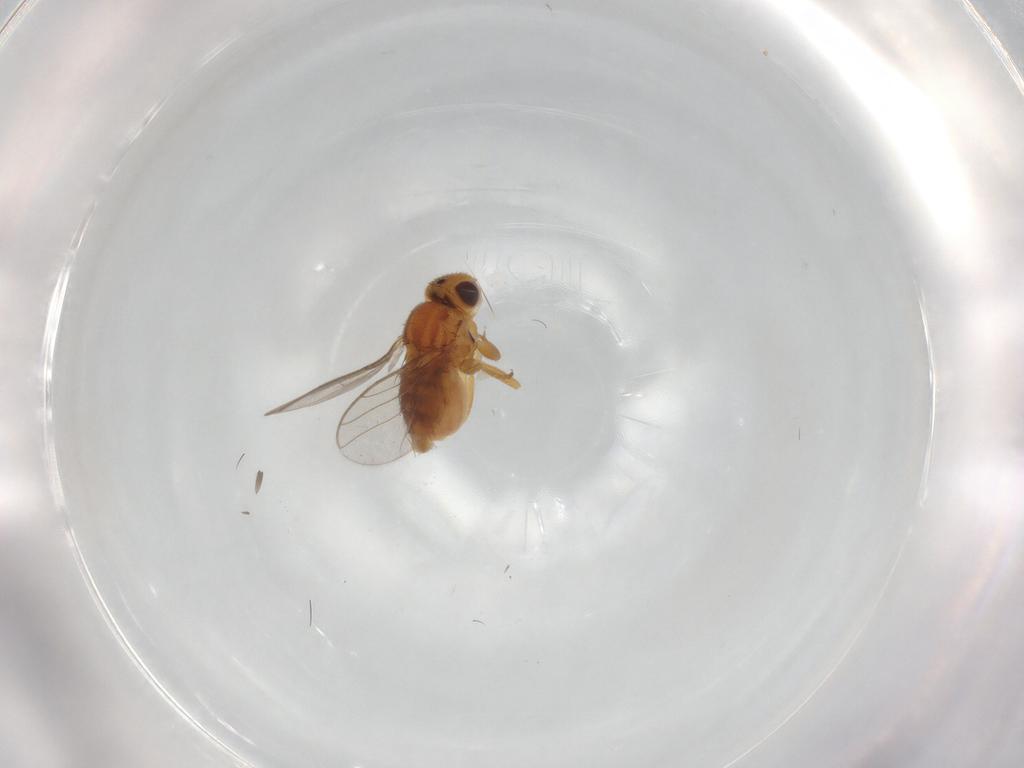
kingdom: Animalia
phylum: Arthropoda
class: Insecta
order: Diptera
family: Chloropidae
